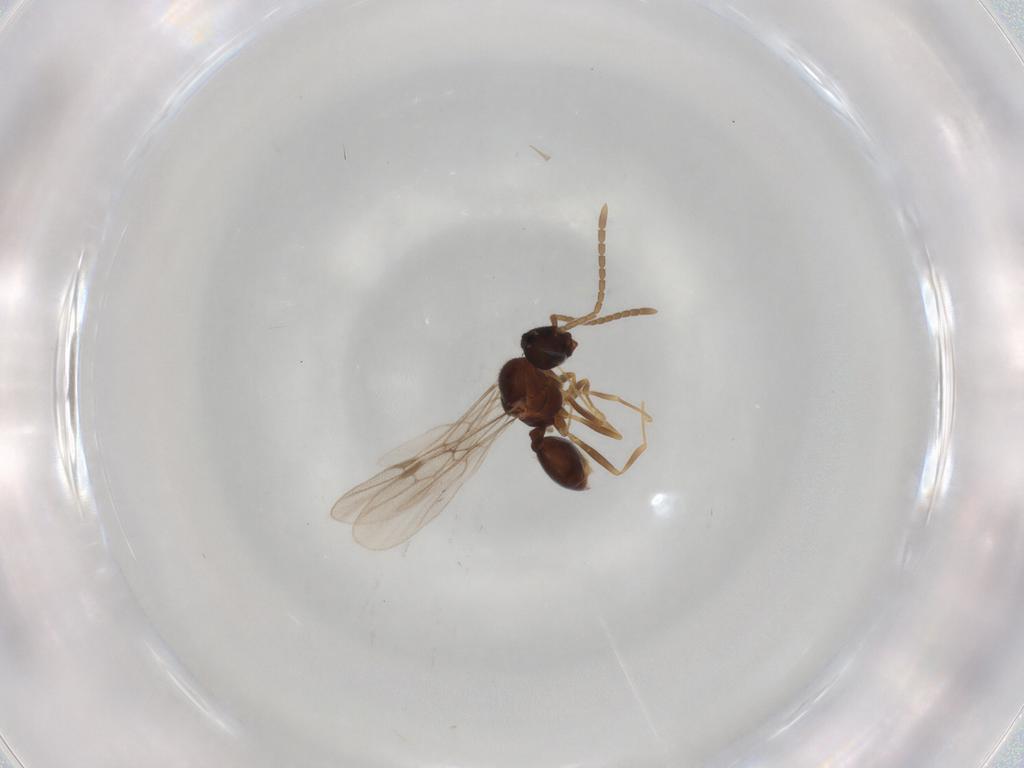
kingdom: Animalia
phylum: Arthropoda
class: Insecta
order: Hymenoptera
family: Formicidae
